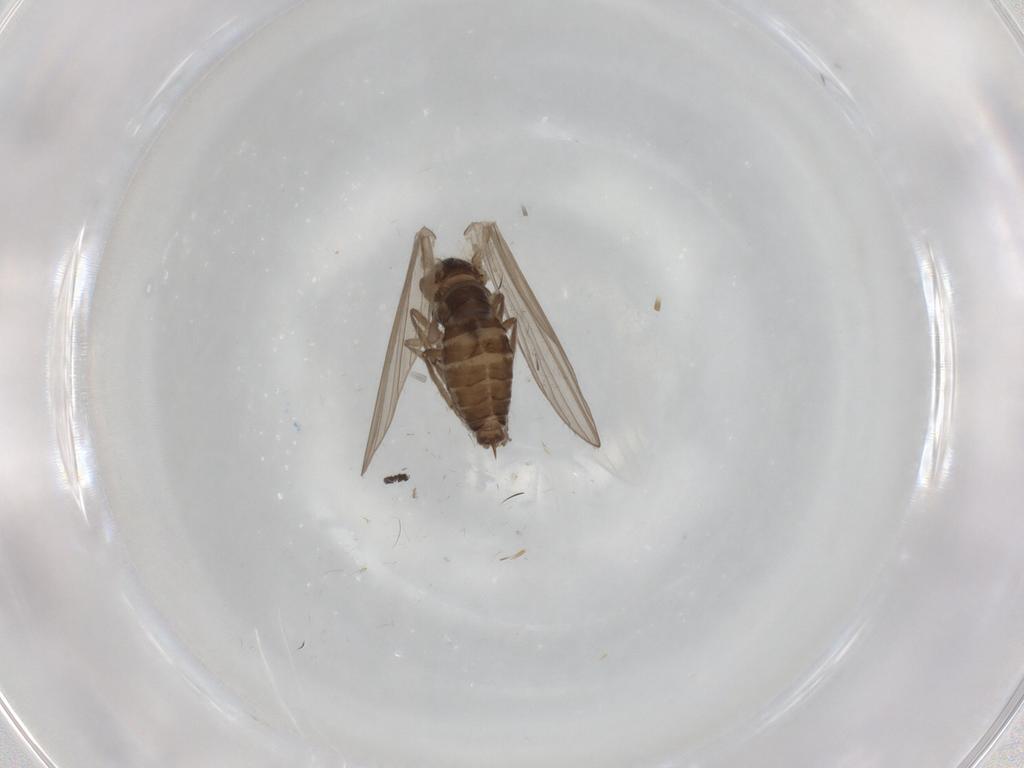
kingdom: Animalia
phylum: Arthropoda
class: Insecta
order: Diptera
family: Psychodidae
